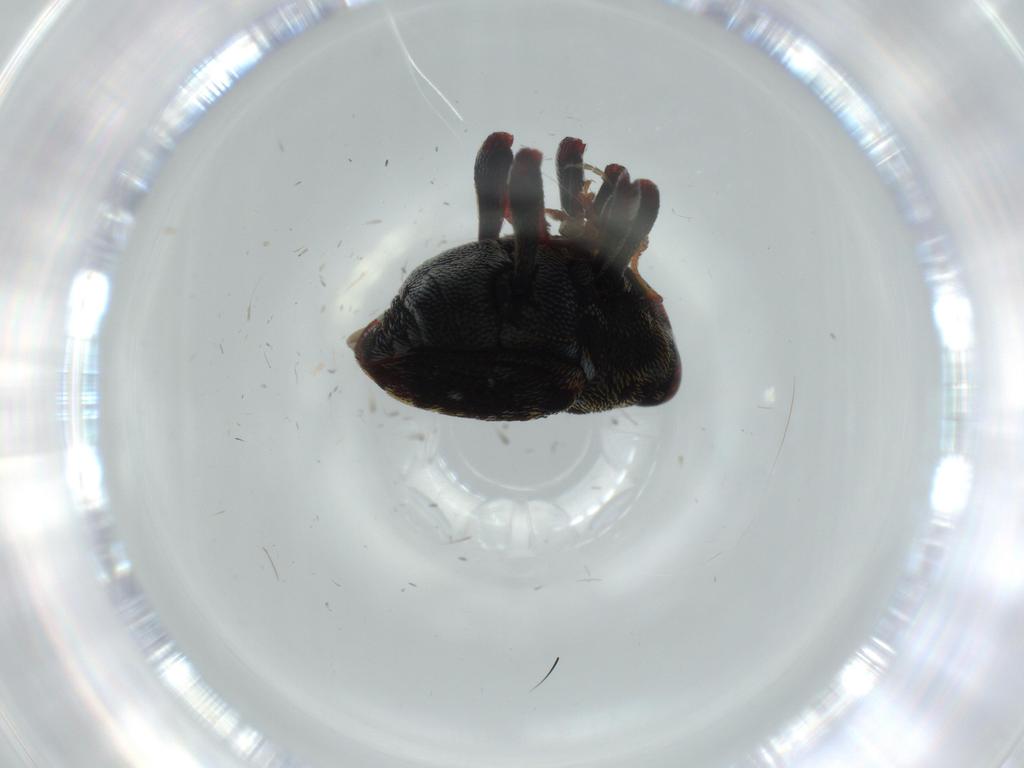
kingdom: Animalia
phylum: Arthropoda
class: Insecta
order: Coleoptera
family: Curculionidae
